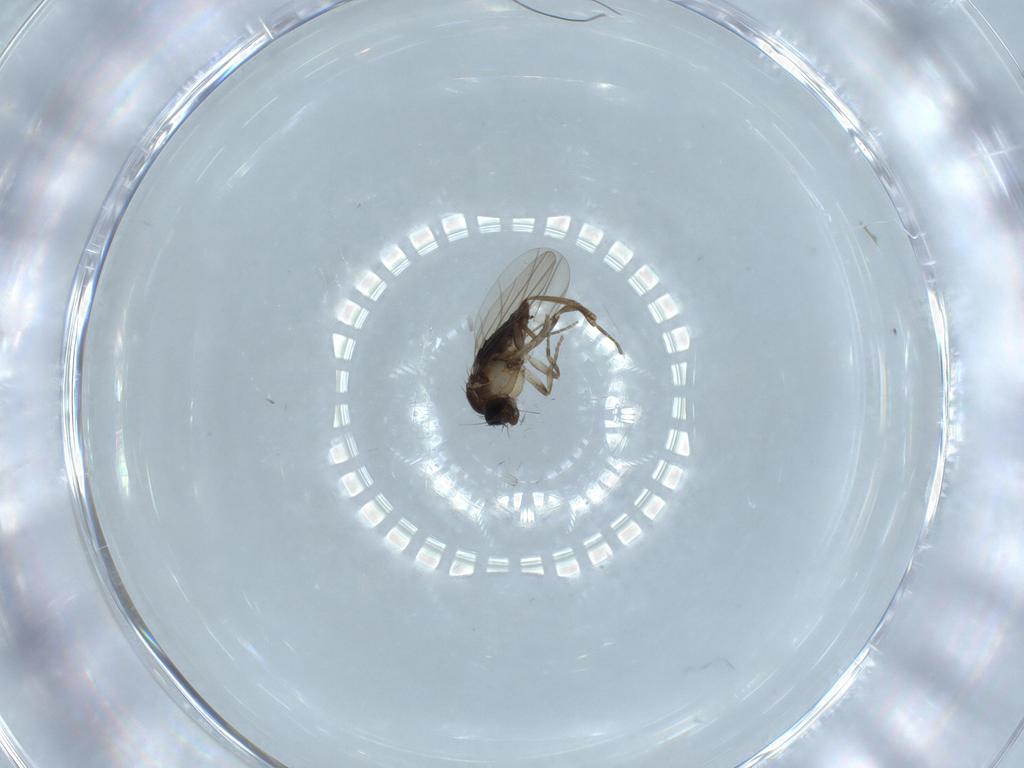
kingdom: Animalia
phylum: Arthropoda
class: Insecta
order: Diptera
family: Phoridae
